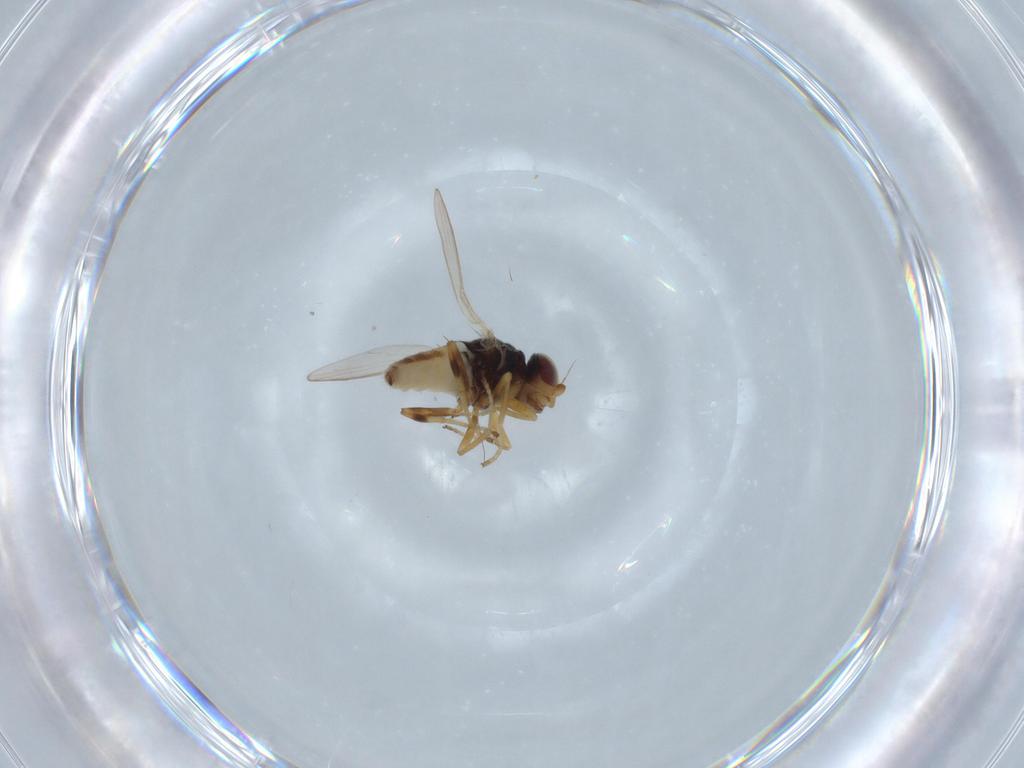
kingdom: Animalia
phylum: Arthropoda
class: Insecta
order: Diptera
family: Chloropidae
